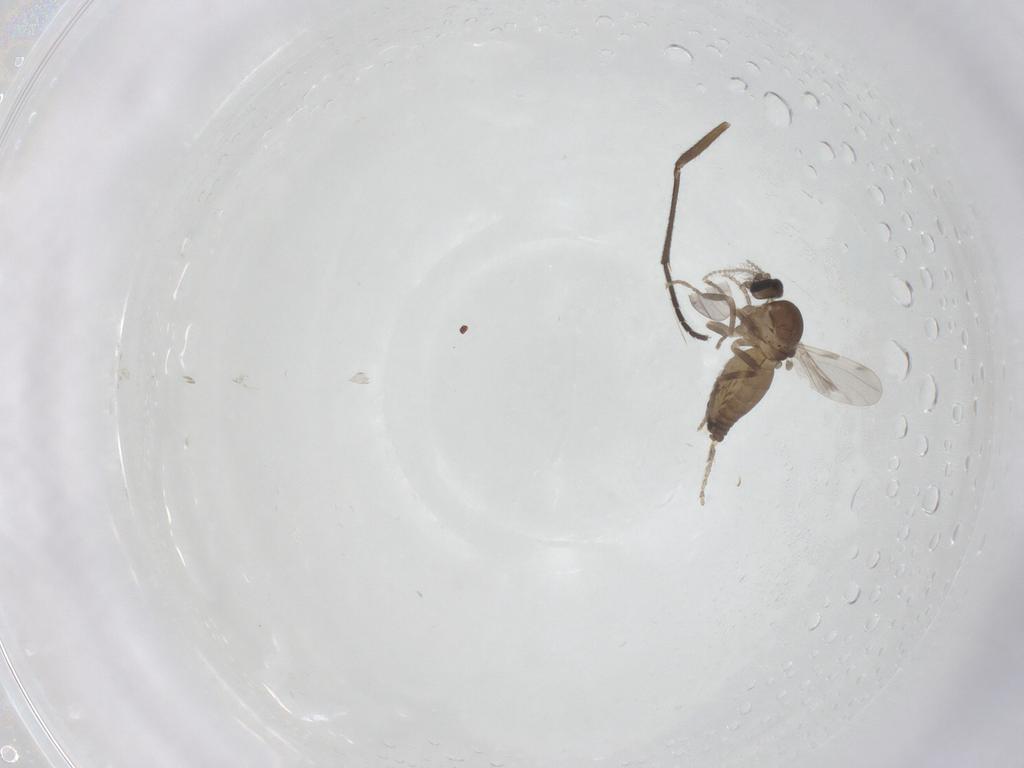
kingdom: Animalia
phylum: Arthropoda
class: Insecta
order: Diptera
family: Ceratopogonidae
